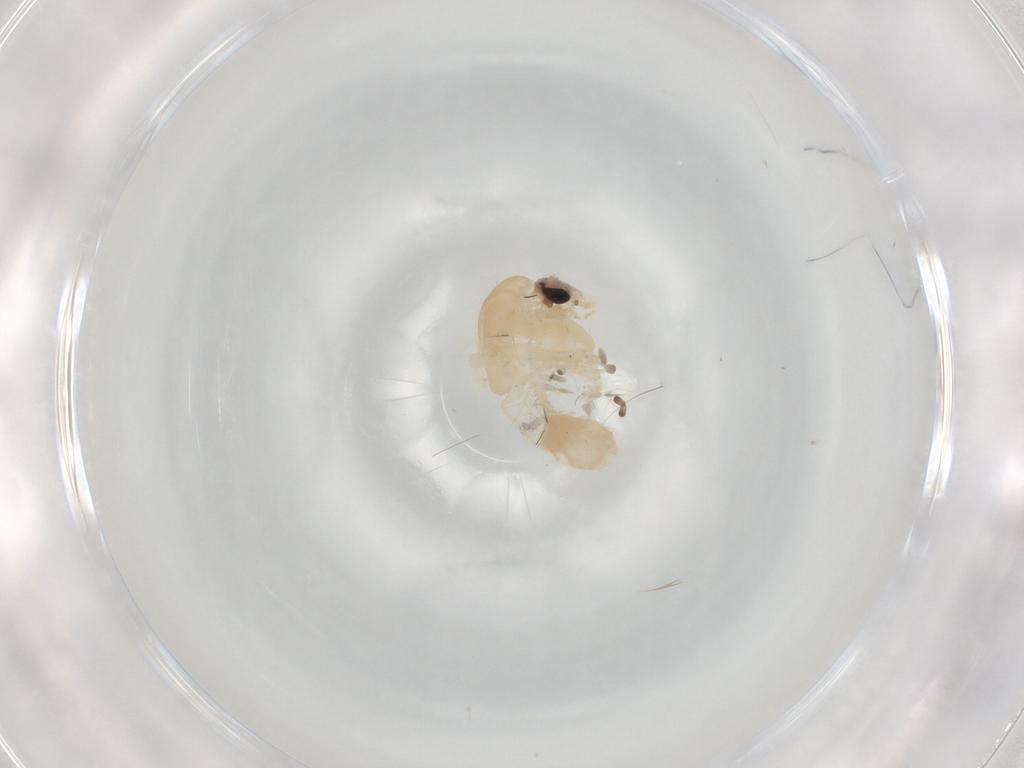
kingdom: Animalia
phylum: Arthropoda
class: Insecta
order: Diptera
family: Chironomidae
